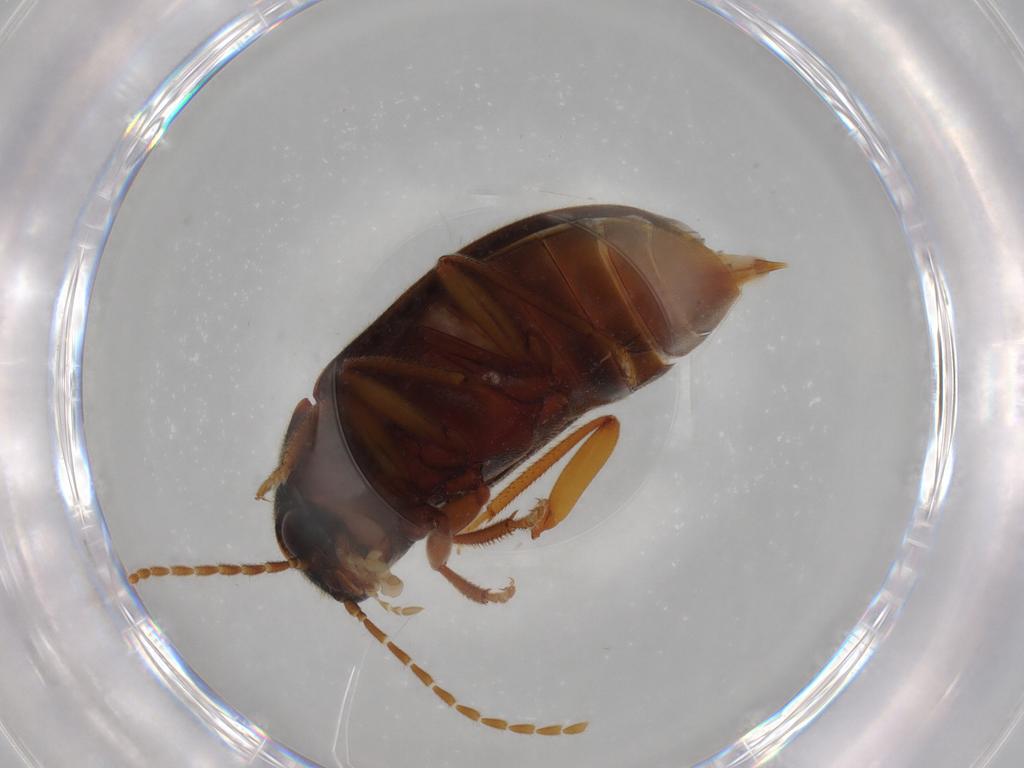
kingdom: Animalia
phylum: Arthropoda
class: Insecta
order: Coleoptera
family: Ptilodactylidae
